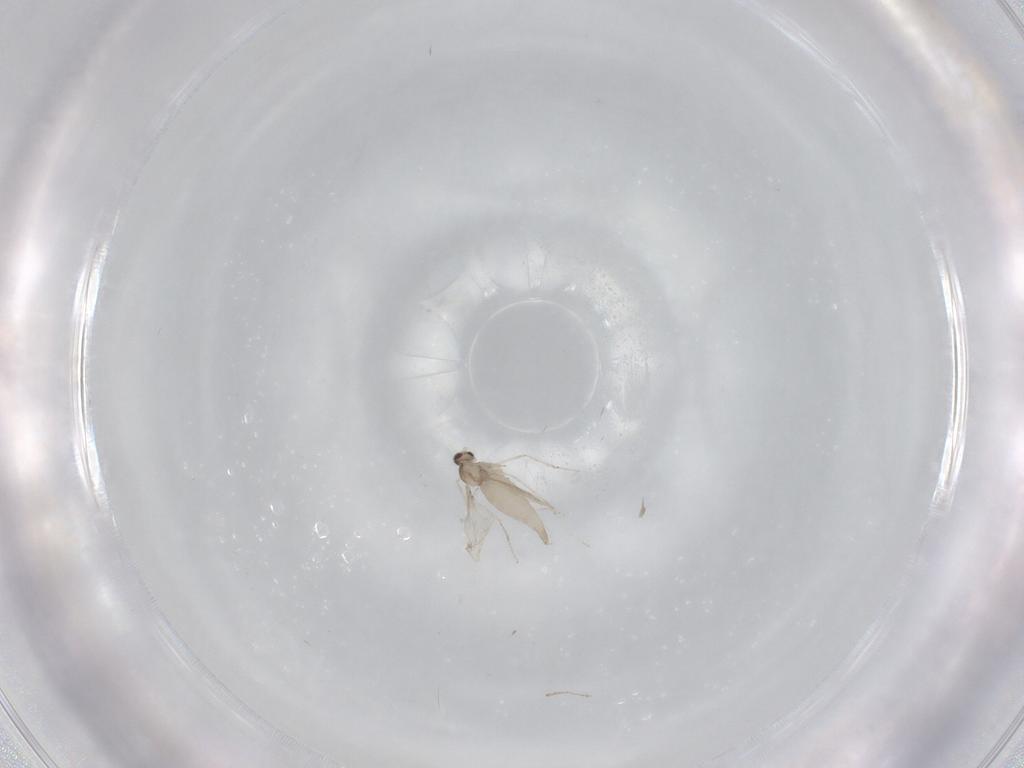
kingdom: Animalia
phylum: Arthropoda
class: Insecta
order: Diptera
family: Cecidomyiidae
